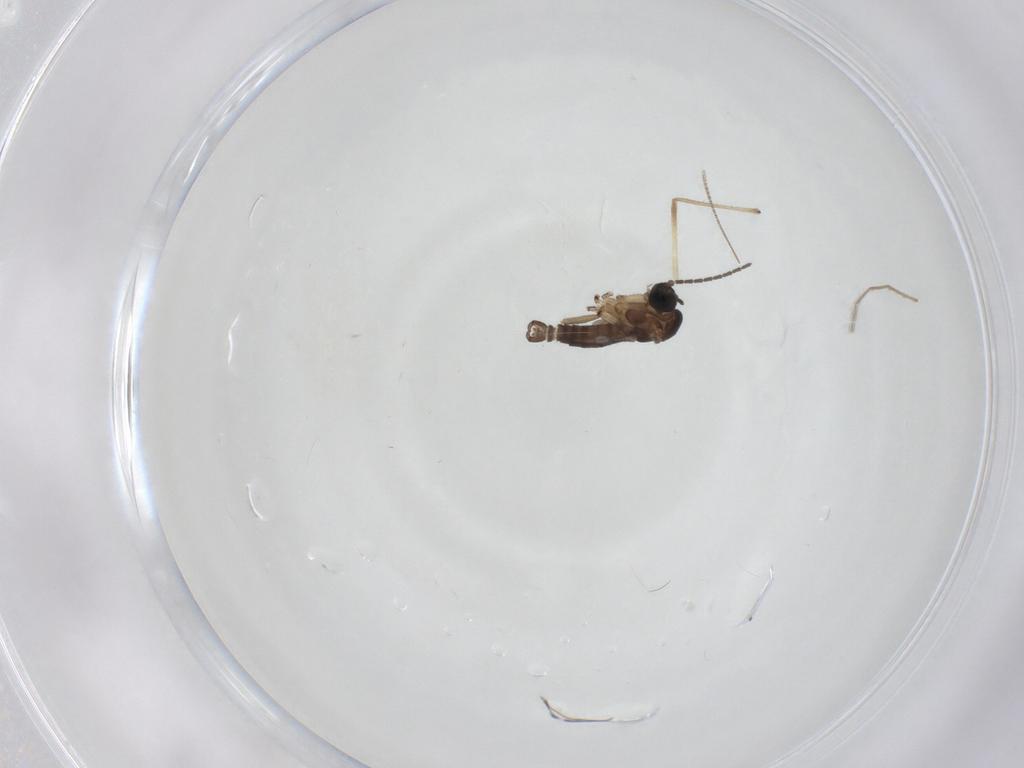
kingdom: Animalia
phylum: Arthropoda
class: Insecta
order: Diptera
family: Sciaridae
